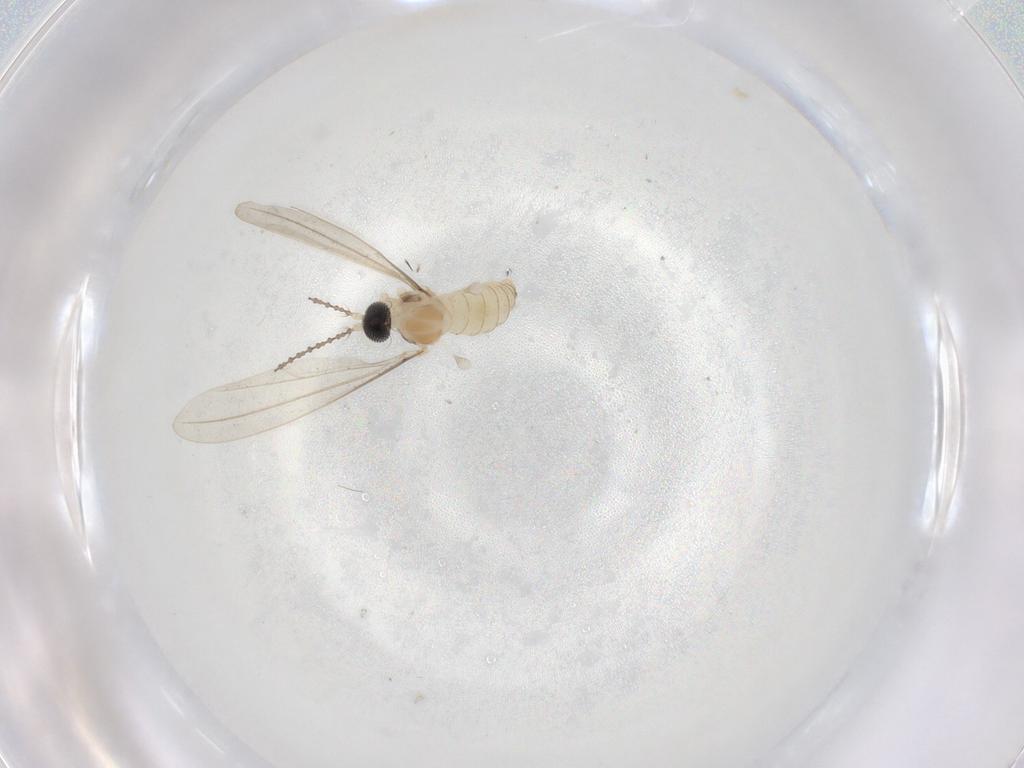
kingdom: Animalia
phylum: Arthropoda
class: Insecta
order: Diptera
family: Cecidomyiidae
